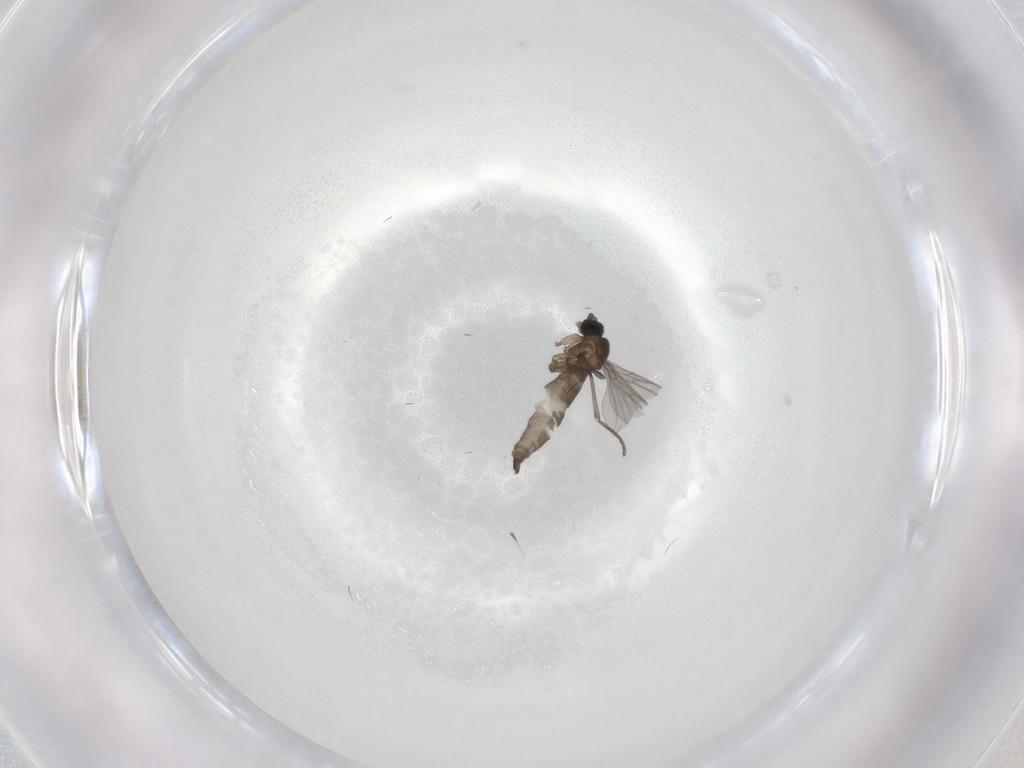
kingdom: Animalia
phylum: Arthropoda
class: Insecta
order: Diptera
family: Sciaridae
